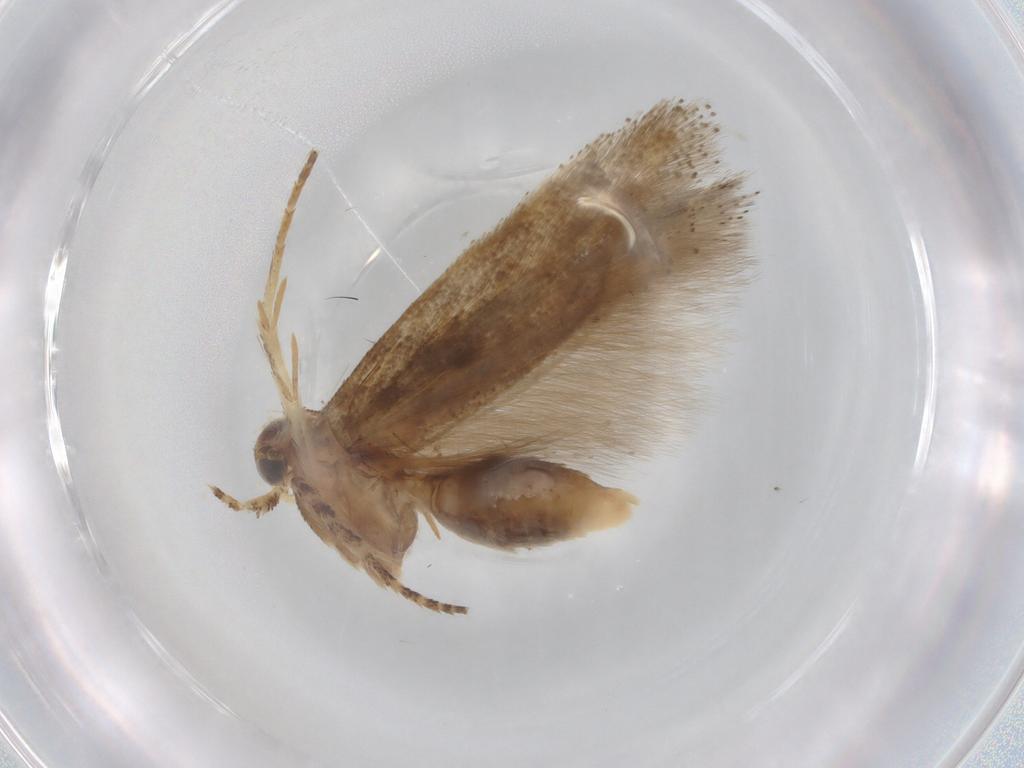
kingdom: Animalia
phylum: Arthropoda
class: Insecta
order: Lepidoptera
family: Gelechiidae
